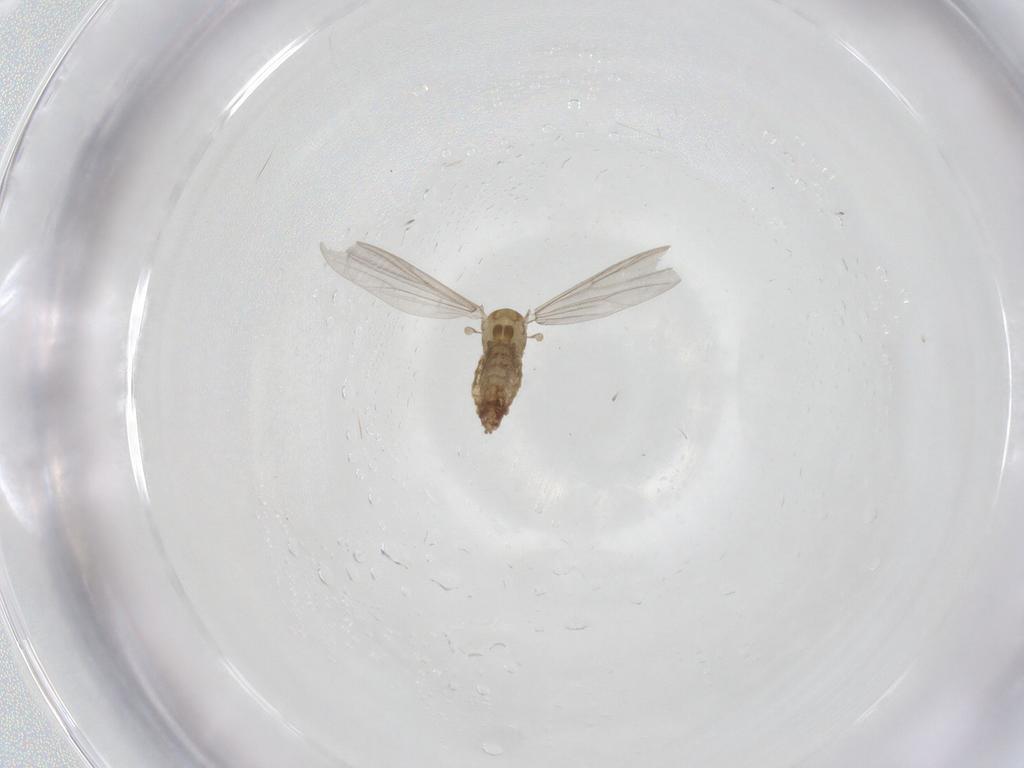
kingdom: Animalia
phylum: Arthropoda
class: Insecta
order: Diptera
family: Chironomidae
